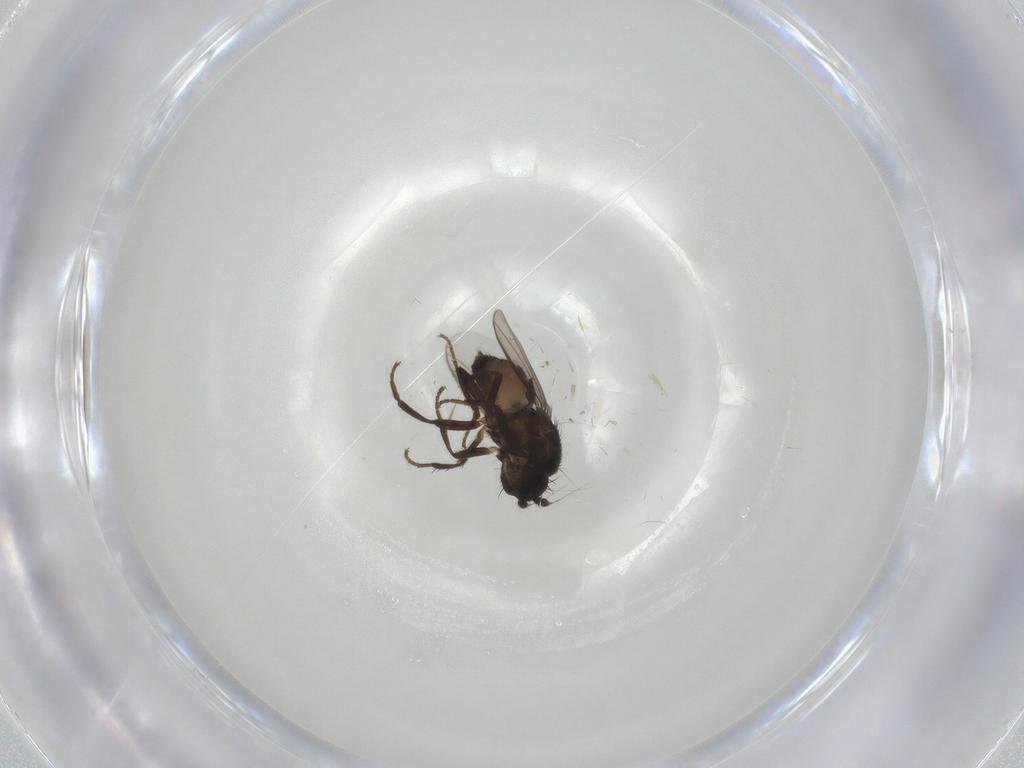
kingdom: Animalia
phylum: Arthropoda
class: Insecta
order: Diptera
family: Sphaeroceridae
